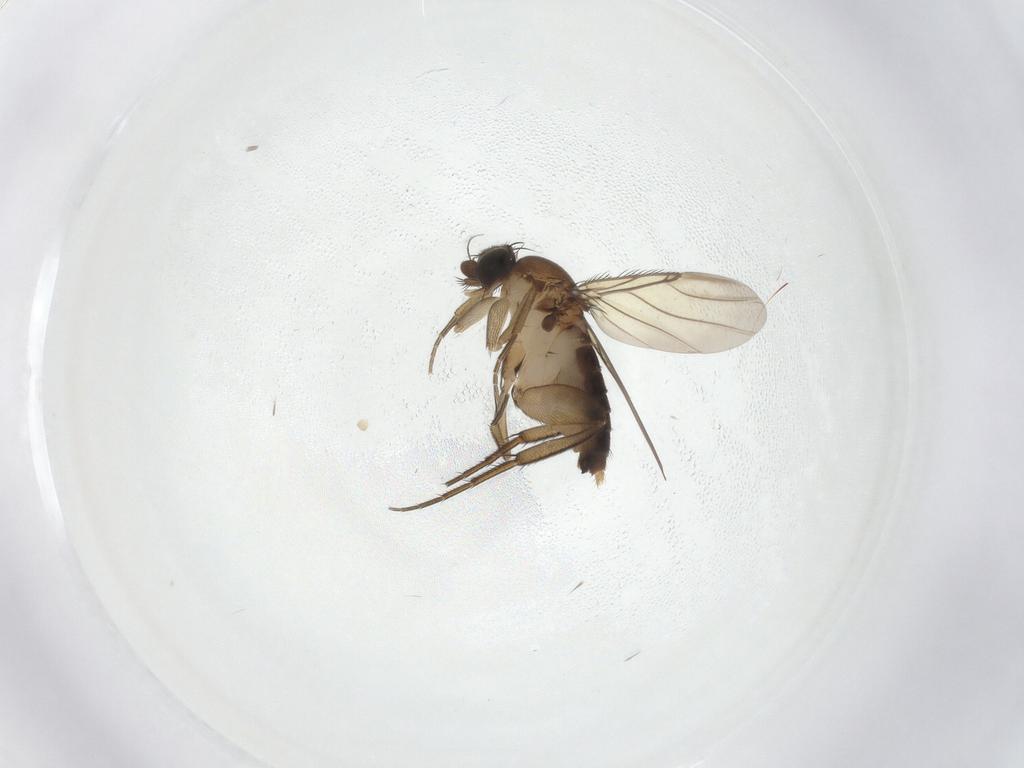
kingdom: Animalia
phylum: Arthropoda
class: Insecta
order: Diptera
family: Phoridae
